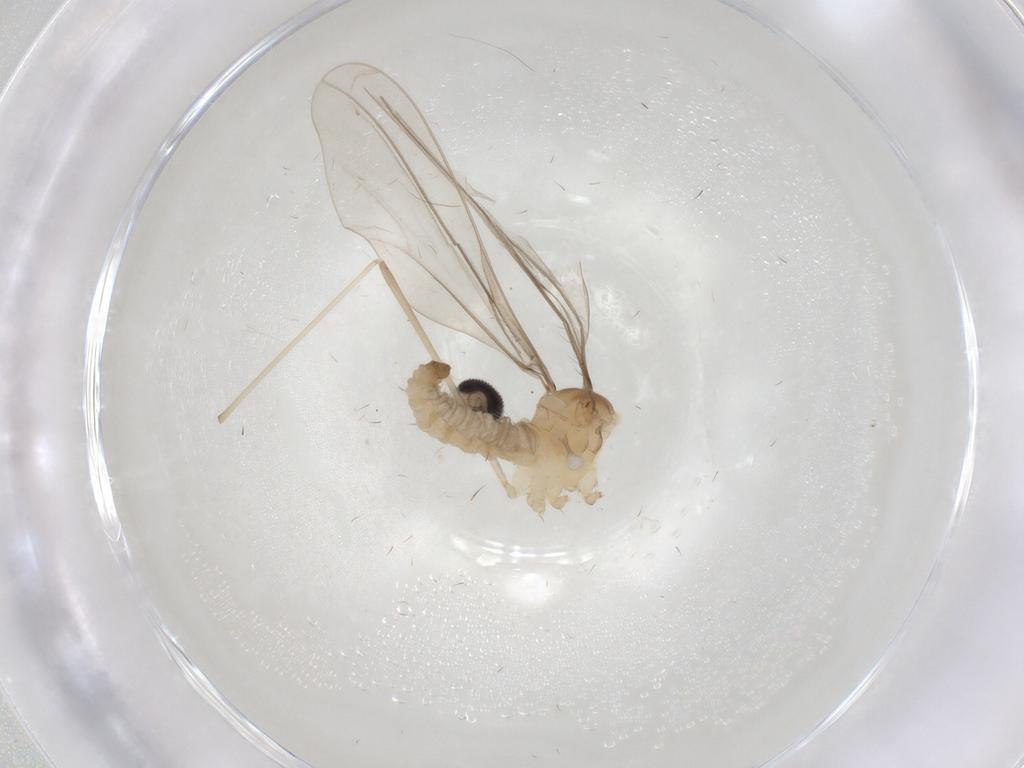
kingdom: Animalia
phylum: Arthropoda
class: Insecta
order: Diptera
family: Cecidomyiidae
